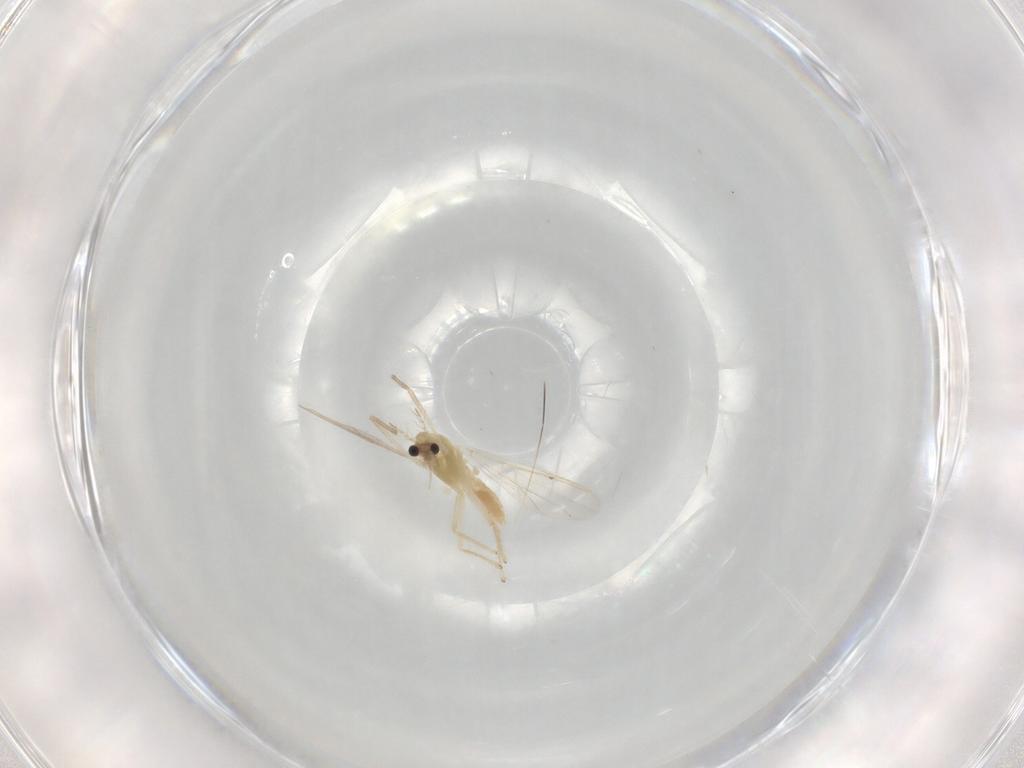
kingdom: Animalia
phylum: Arthropoda
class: Insecta
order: Diptera
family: Chironomidae
